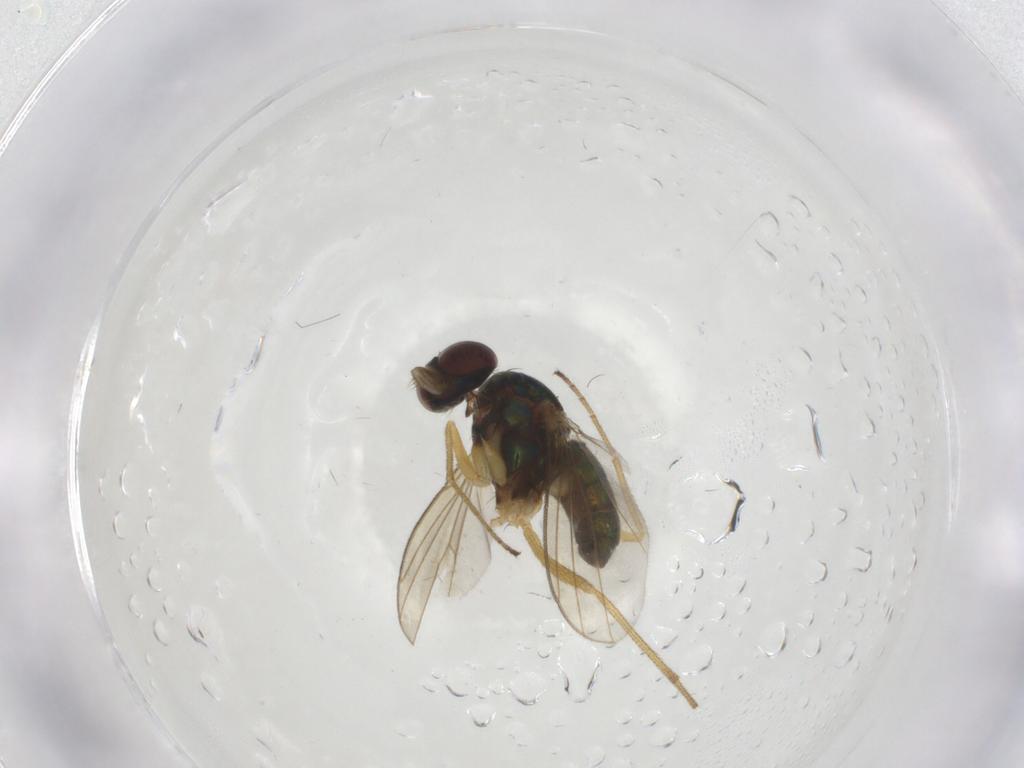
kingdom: Animalia
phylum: Arthropoda
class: Insecta
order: Diptera
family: Dolichopodidae
